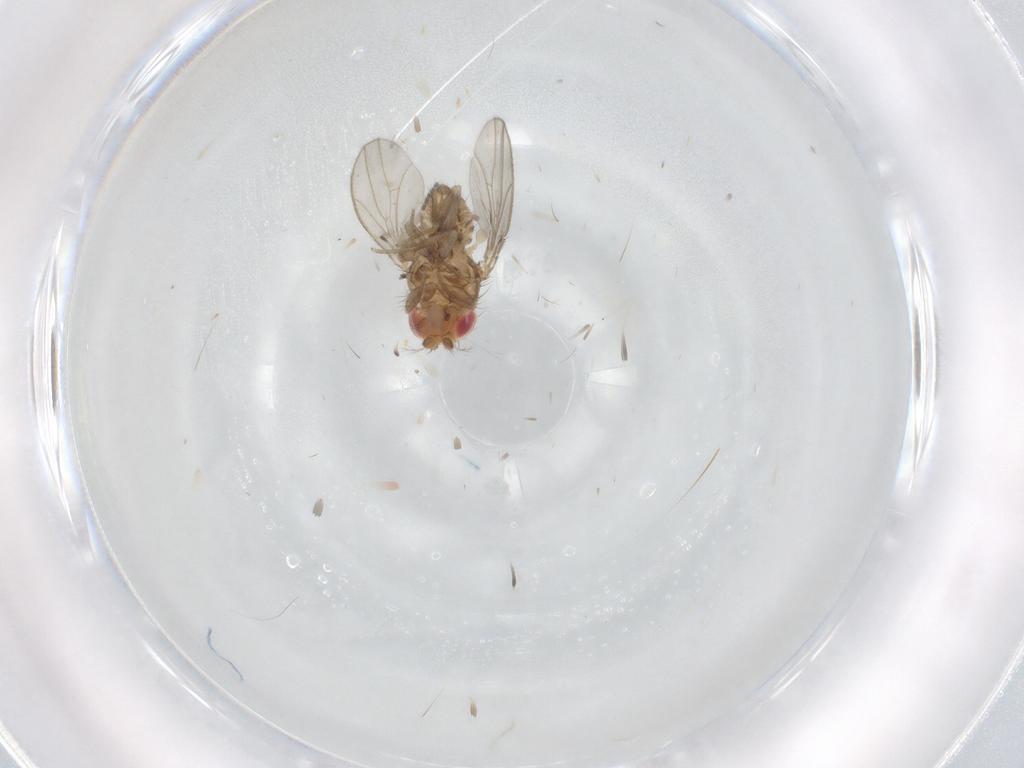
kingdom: Animalia
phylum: Arthropoda
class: Insecta
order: Diptera
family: Drosophilidae
